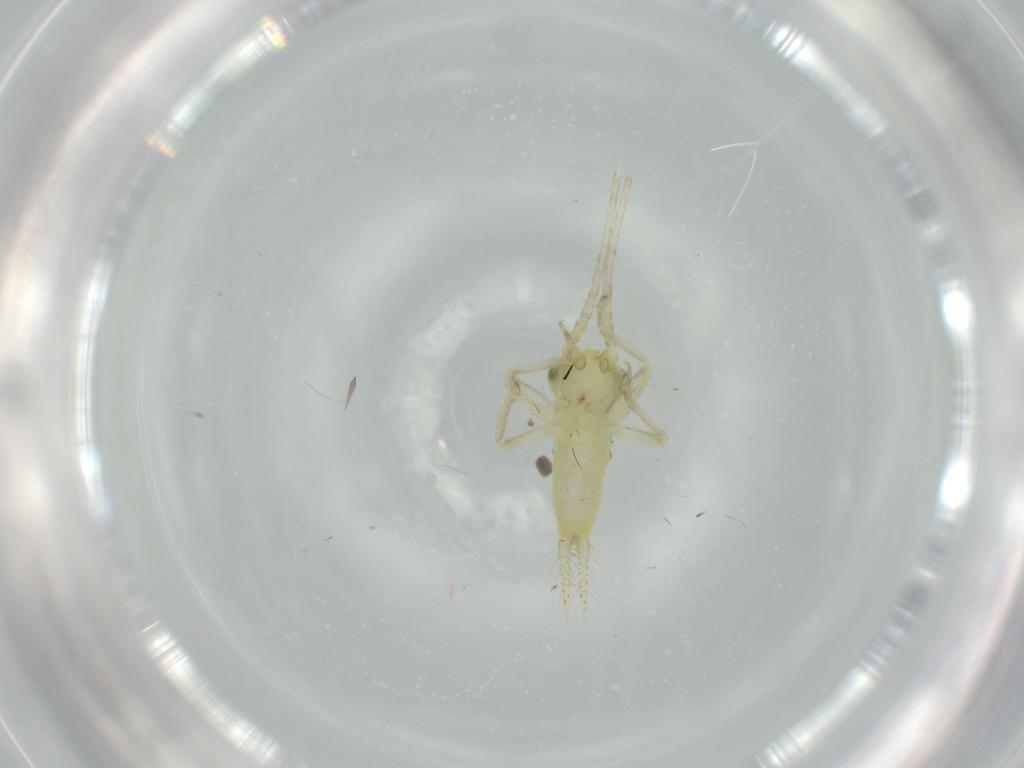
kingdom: Animalia
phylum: Arthropoda
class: Insecta
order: Orthoptera
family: Trigonidiidae
